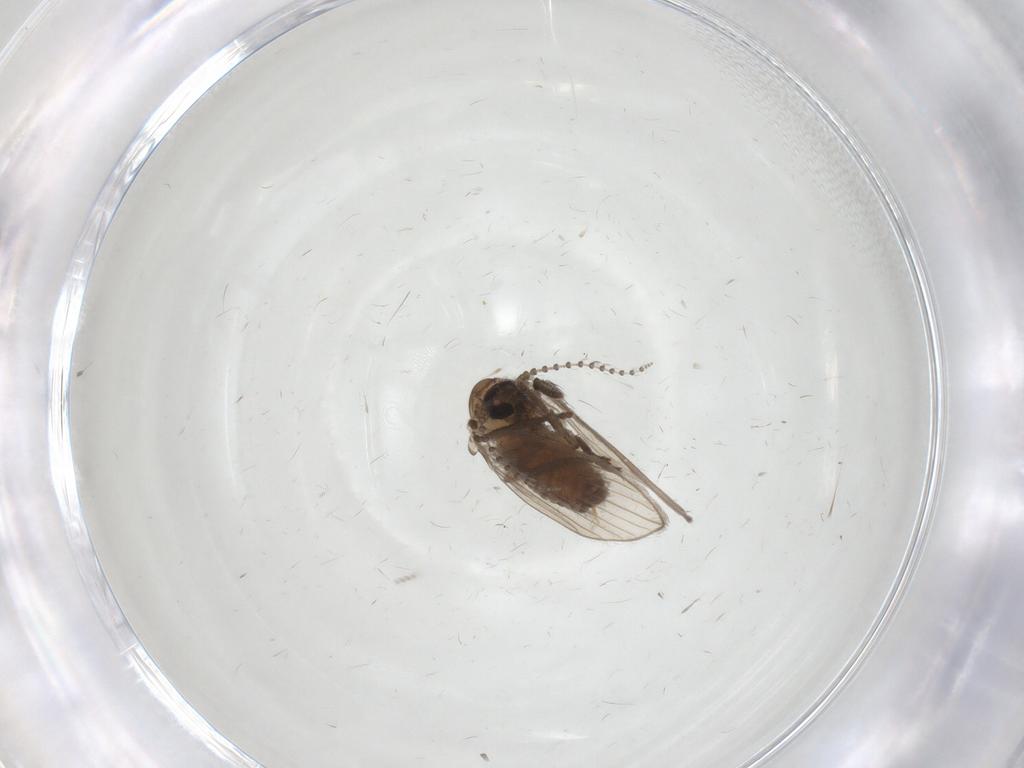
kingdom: Animalia
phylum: Arthropoda
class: Insecta
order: Diptera
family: Psychodidae
